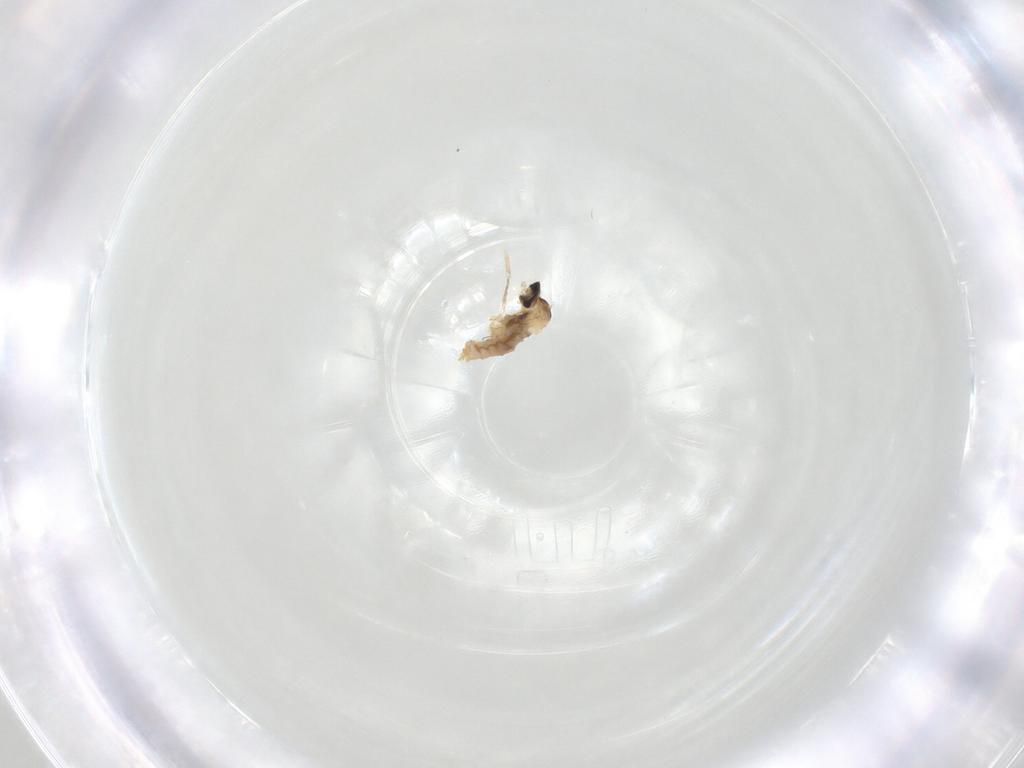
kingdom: Animalia
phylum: Arthropoda
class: Insecta
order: Diptera
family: Cecidomyiidae
